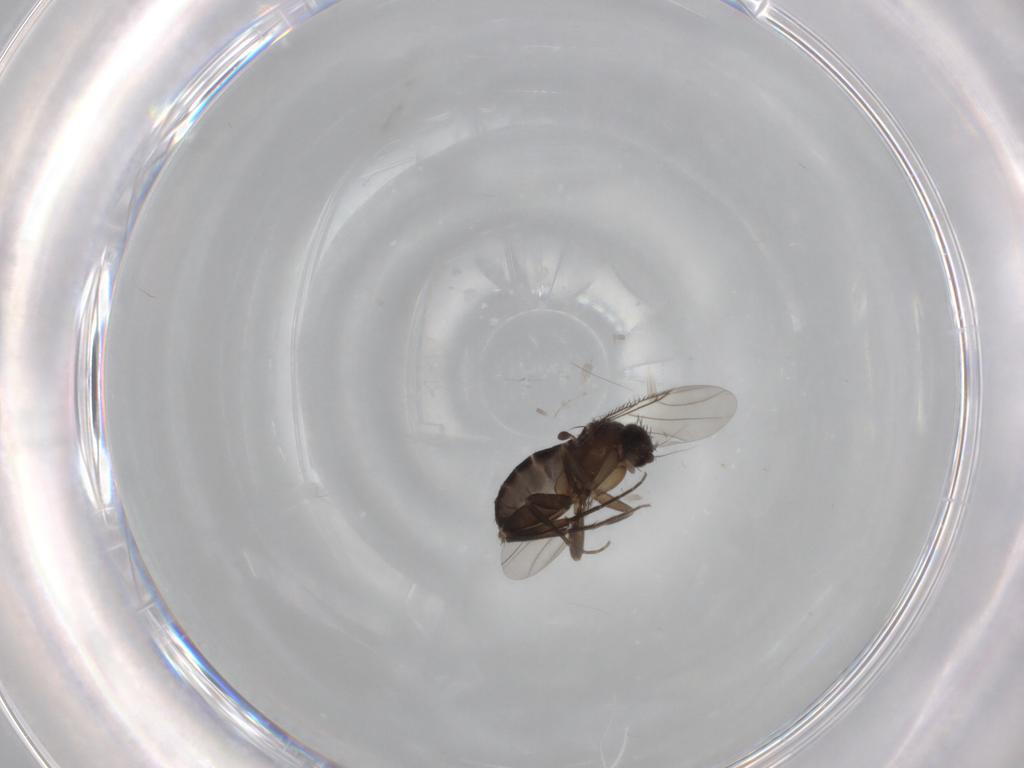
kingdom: Animalia
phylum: Arthropoda
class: Insecta
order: Diptera
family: Phoridae
